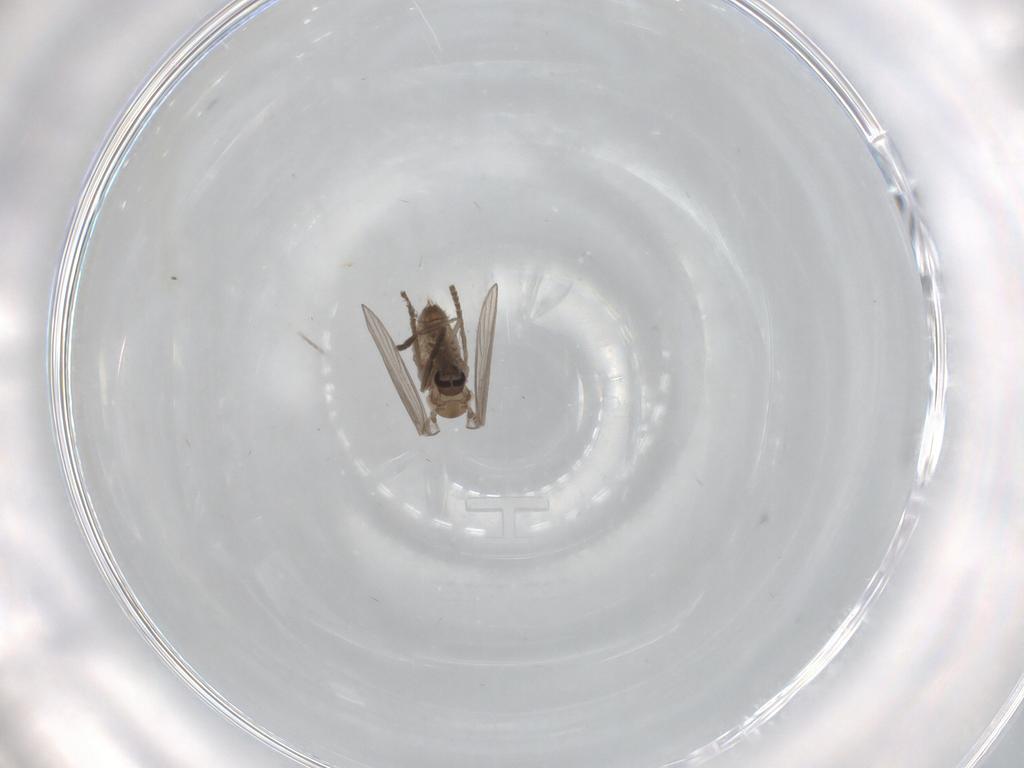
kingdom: Animalia
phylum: Arthropoda
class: Insecta
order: Diptera
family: Psychodidae
